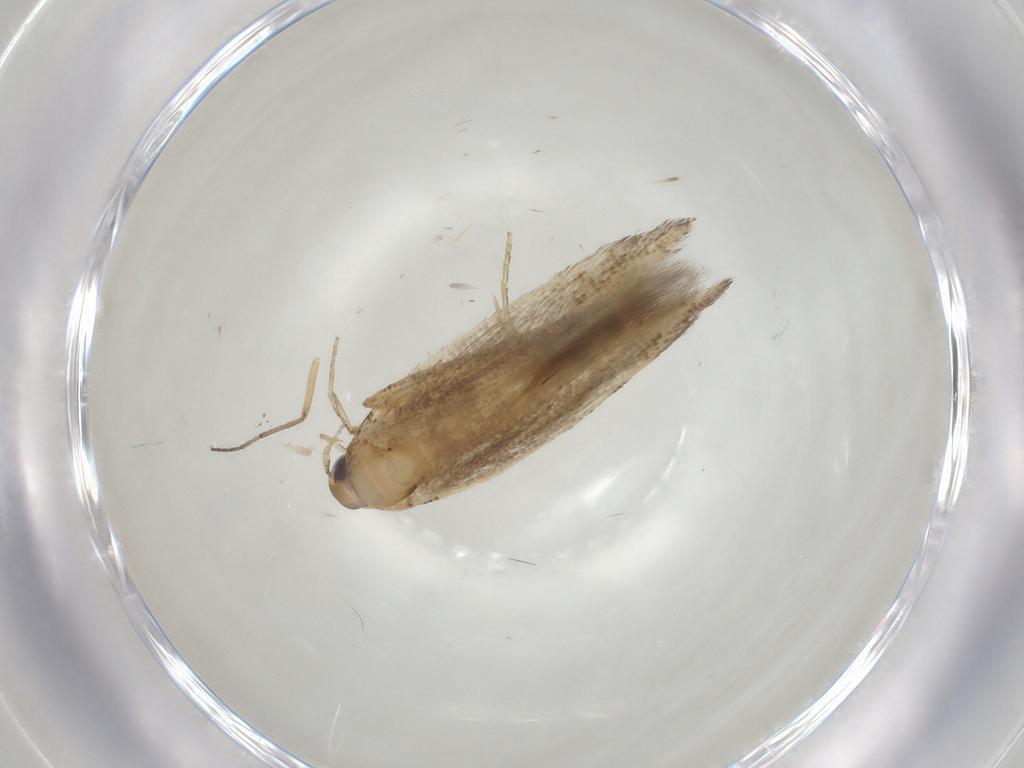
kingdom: Animalia
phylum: Arthropoda
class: Insecta
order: Lepidoptera
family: Cosmopterigidae
